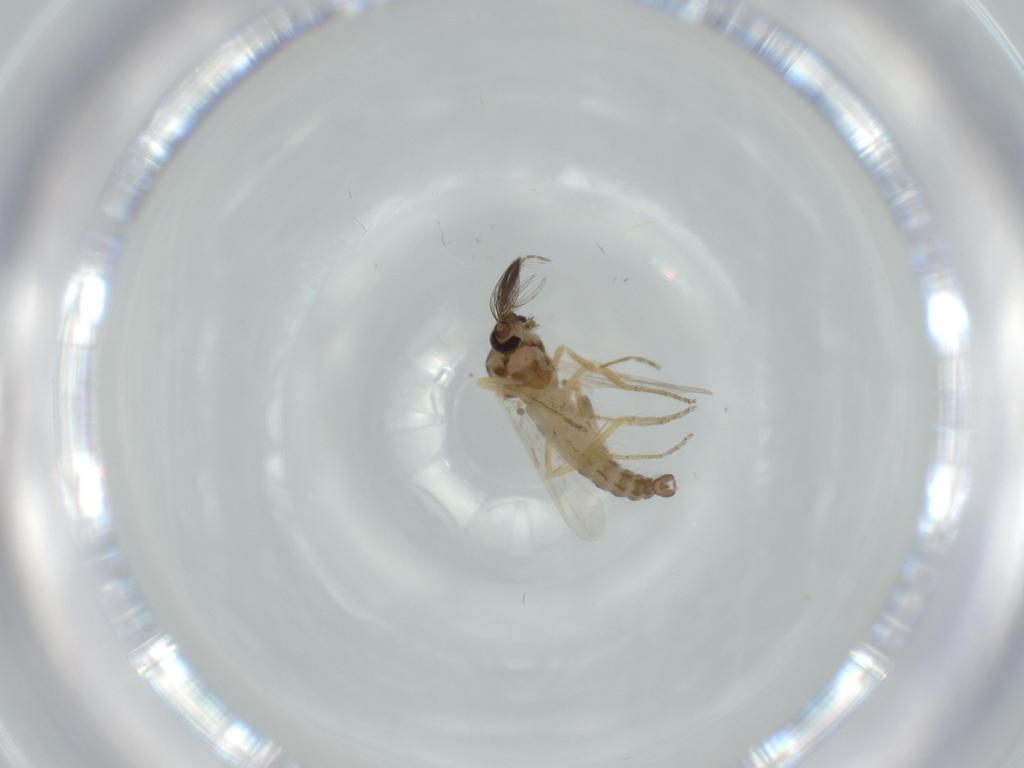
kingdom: Animalia
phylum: Arthropoda
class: Insecta
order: Diptera
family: Ceratopogonidae
